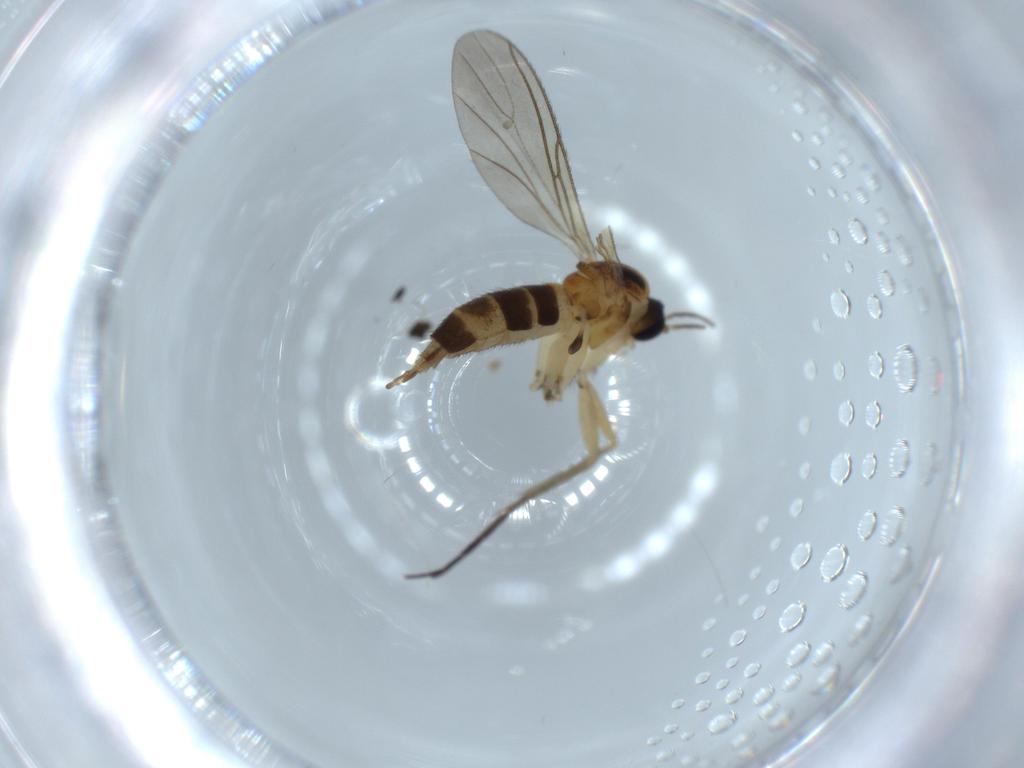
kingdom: Animalia
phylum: Arthropoda
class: Insecta
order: Diptera
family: Sciaridae
